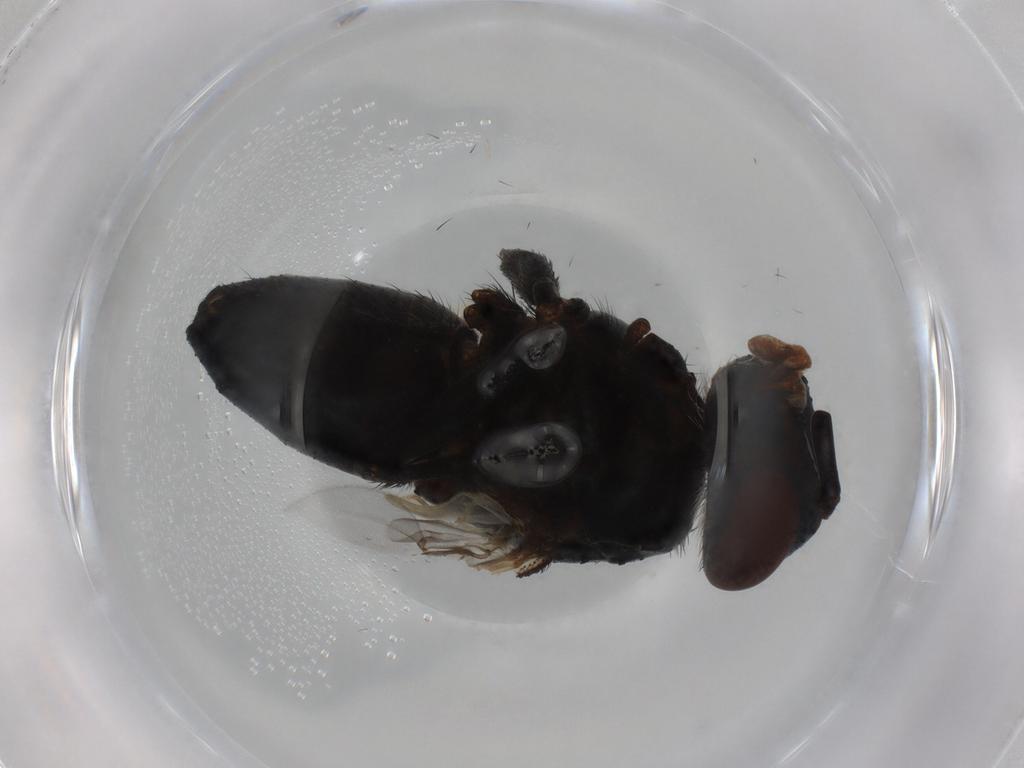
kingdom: Animalia
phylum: Arthropoda
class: Insecta
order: Diptera
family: Tachinidae
